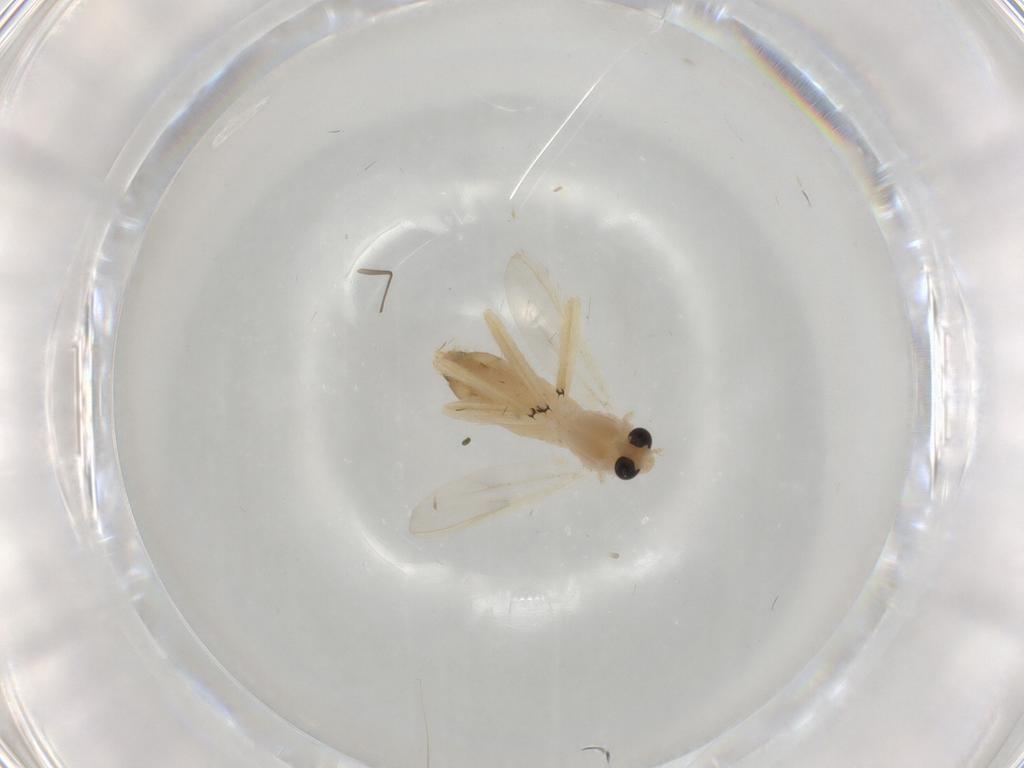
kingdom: Animalia
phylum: Arthropoda
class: Insecta
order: Diptera
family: Chironomidae
